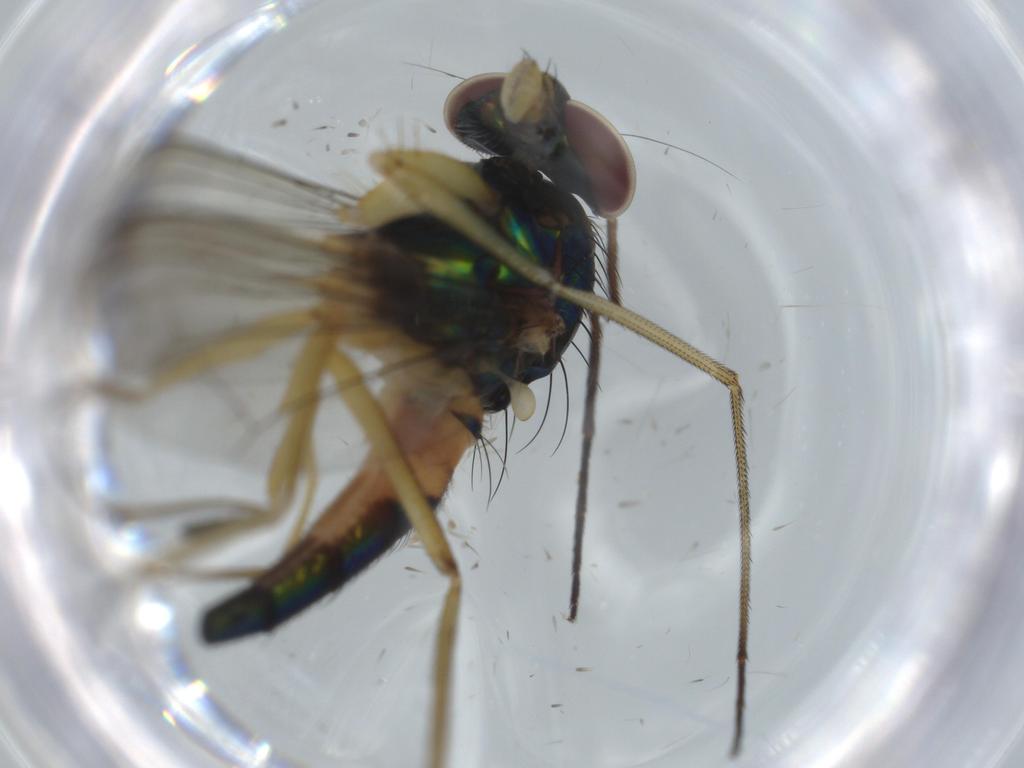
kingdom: Animalia
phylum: Arthropoda
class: Insecta
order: Diptera
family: Dolichopodidae
